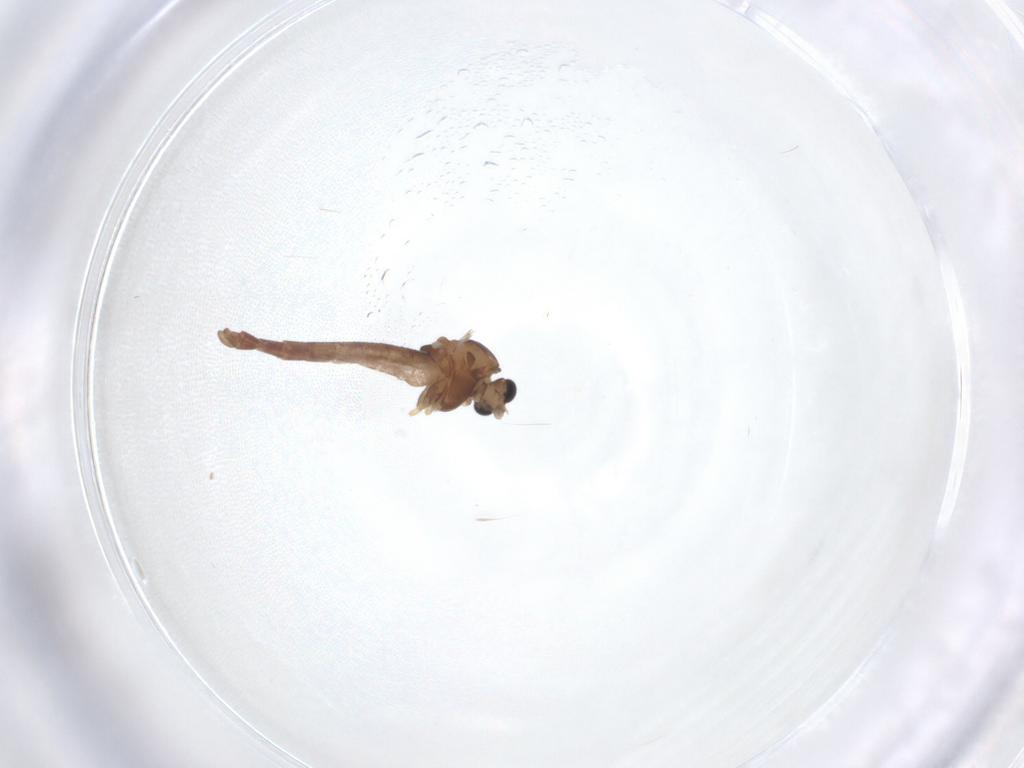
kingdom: Animalia
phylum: Arthropoda
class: Insecta
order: Diptera
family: Chironomidae
